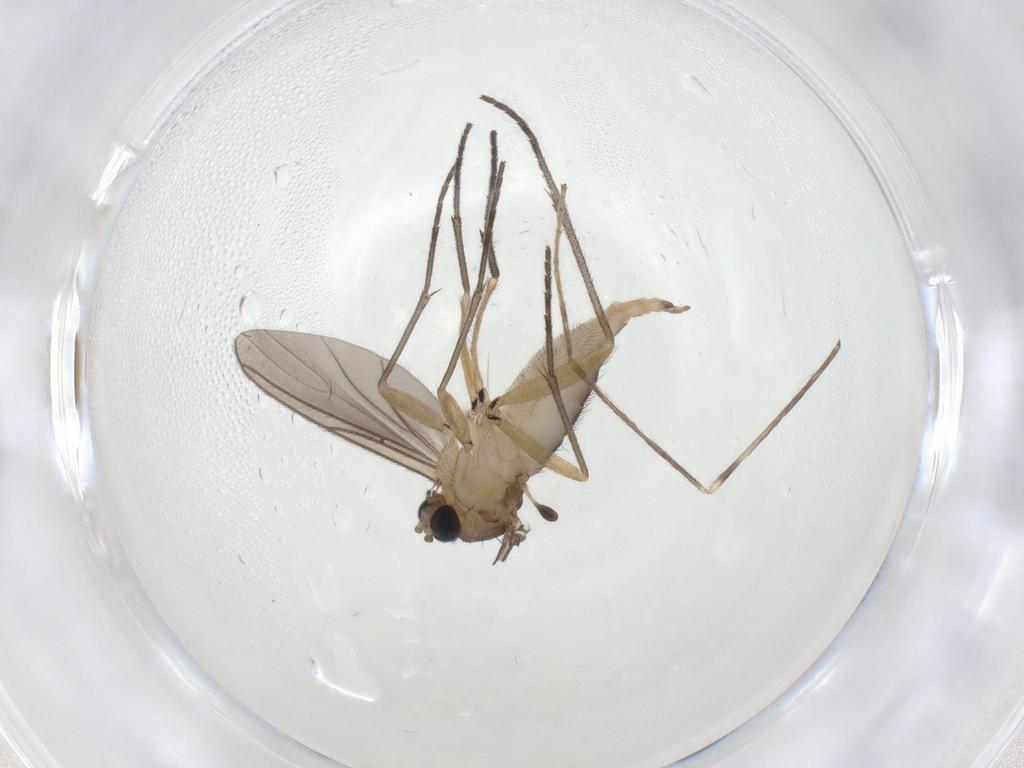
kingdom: Animalia
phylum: Arthropoda
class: Insecta
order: Diptera
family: Sciaridae
